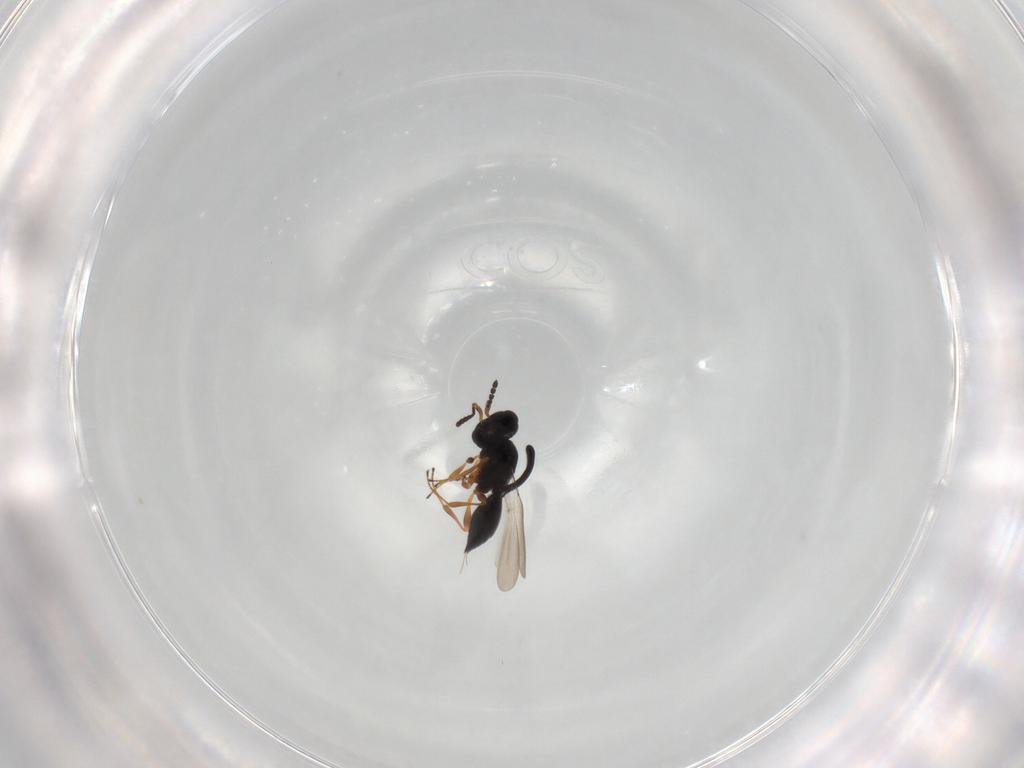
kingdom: Animalia
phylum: Arthropoda
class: Insecta
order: Hymenoptera
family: Platygastridae
